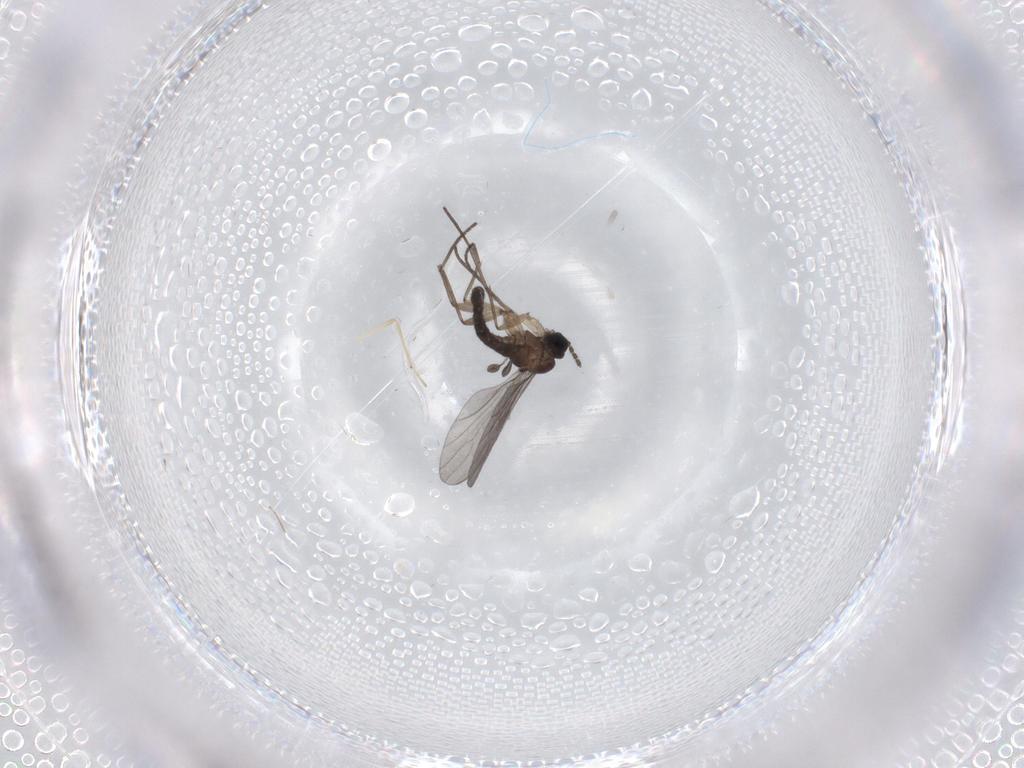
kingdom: Animalia
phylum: Arthropoda
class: Insecta
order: Diptera
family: Sciaridae
